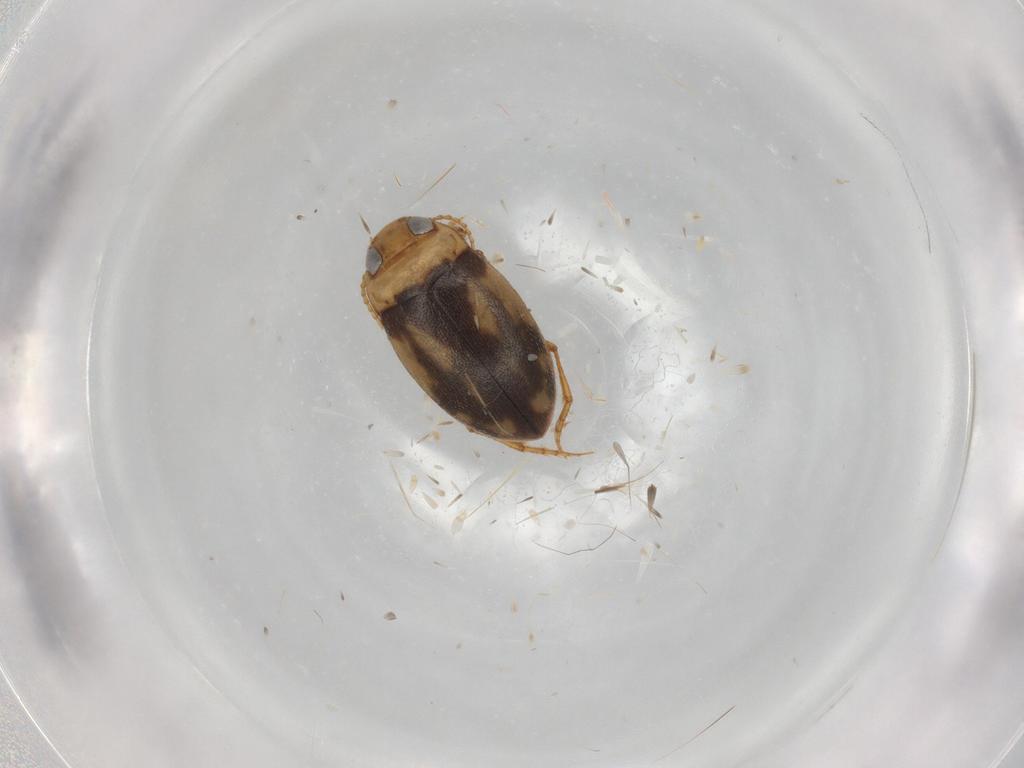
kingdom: Animalia
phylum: Arthropoda
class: Insecta
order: Coleoptera
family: Dytiscidae
